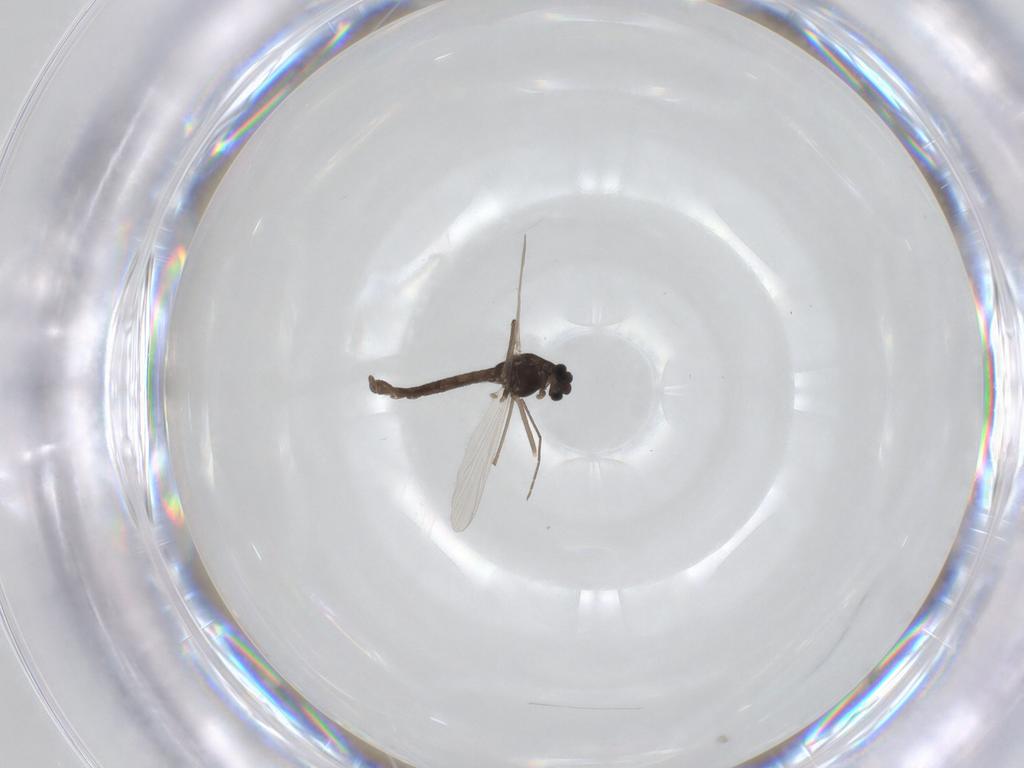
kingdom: Animalia
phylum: Arthropoda
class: Insecta
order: Diptera
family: Chironomidae
